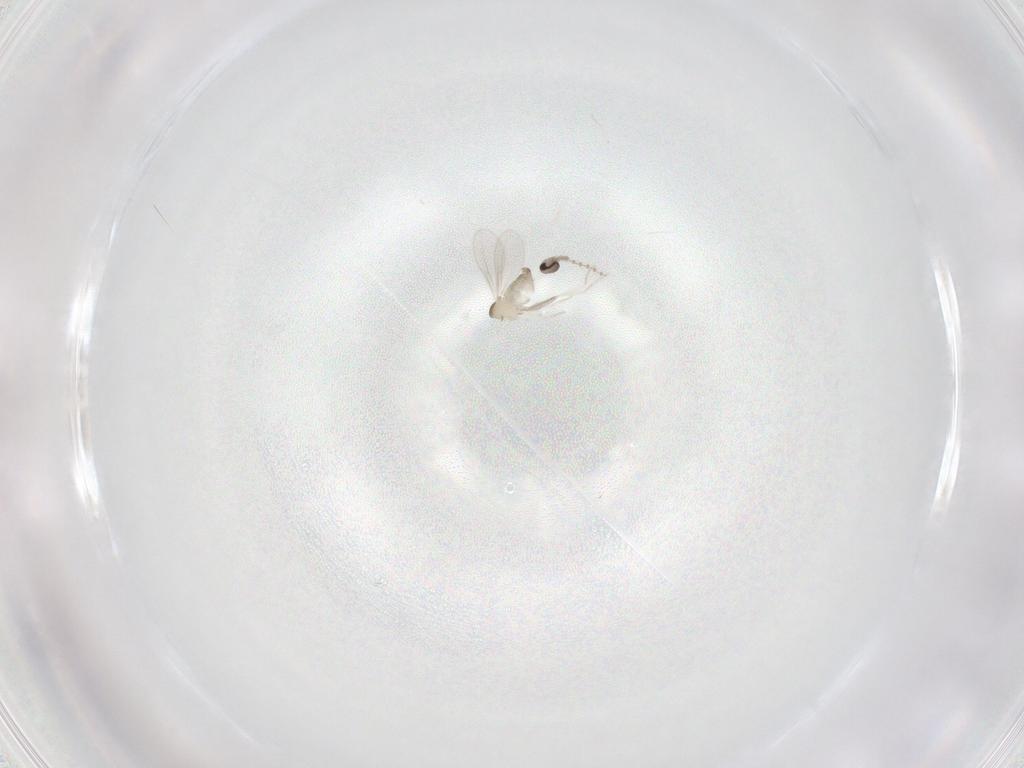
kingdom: Animalia
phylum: Arthropoda
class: Insecta
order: Diptera
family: Cecidomyiidae
